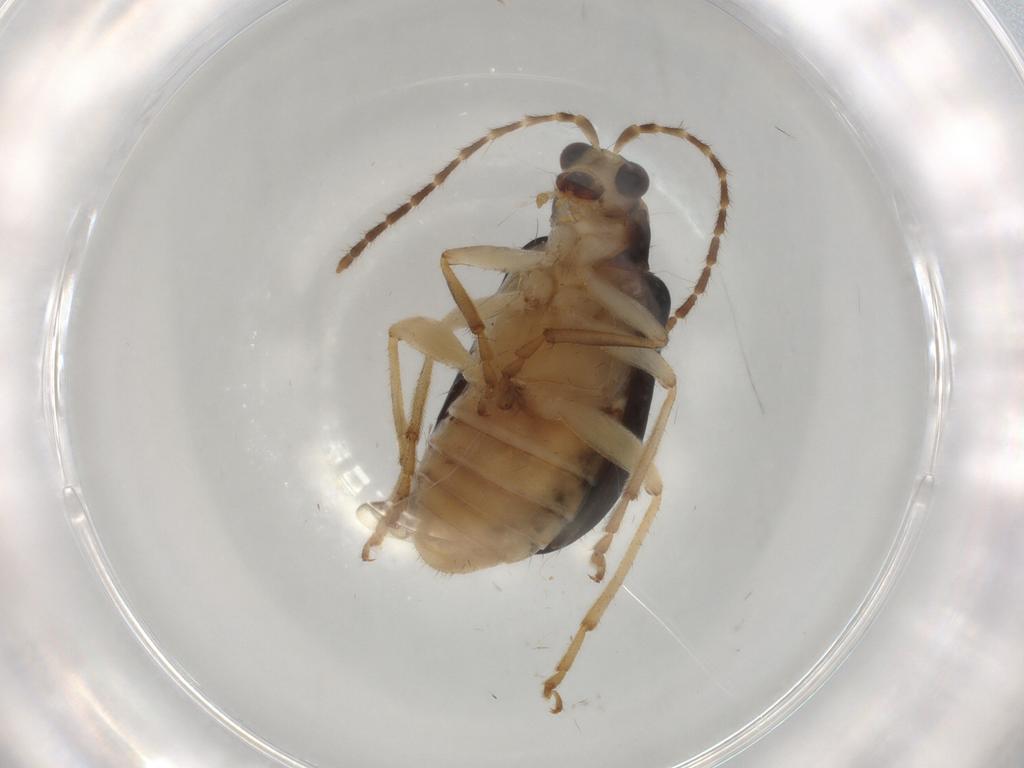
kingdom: Animalia
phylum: Arthropoda
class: Insecta
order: Coleoptera
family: Chrysomelidae
